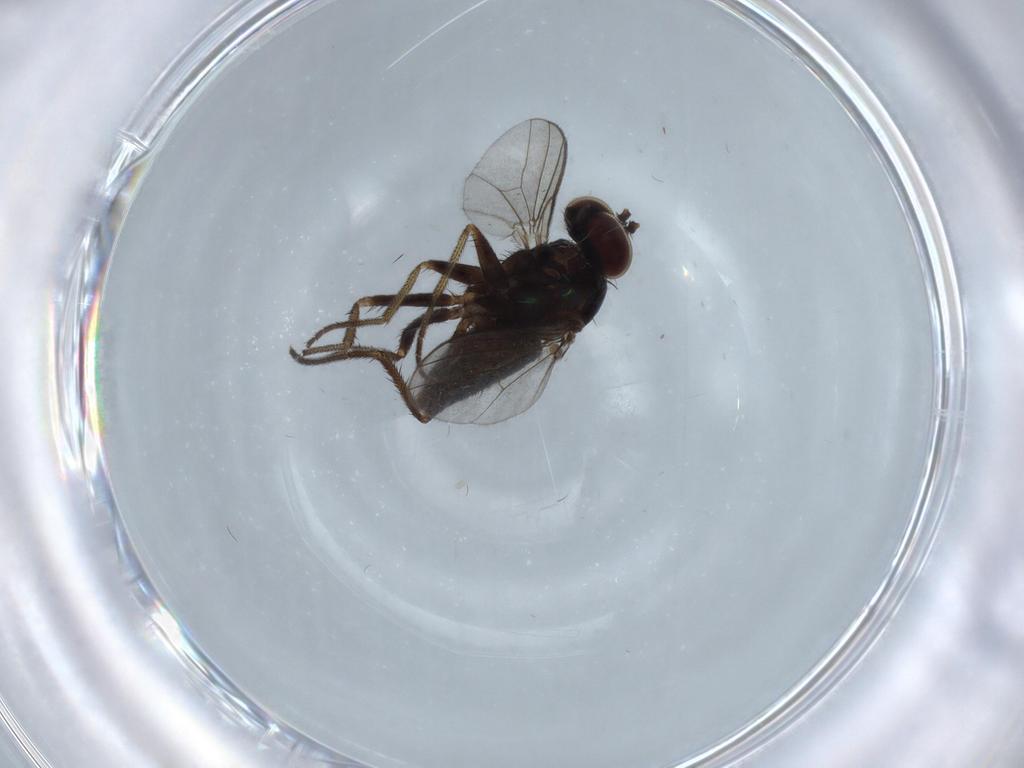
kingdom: Animalia
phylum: Arthropoda
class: Insecta
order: Diptera
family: Dolichopodidae
